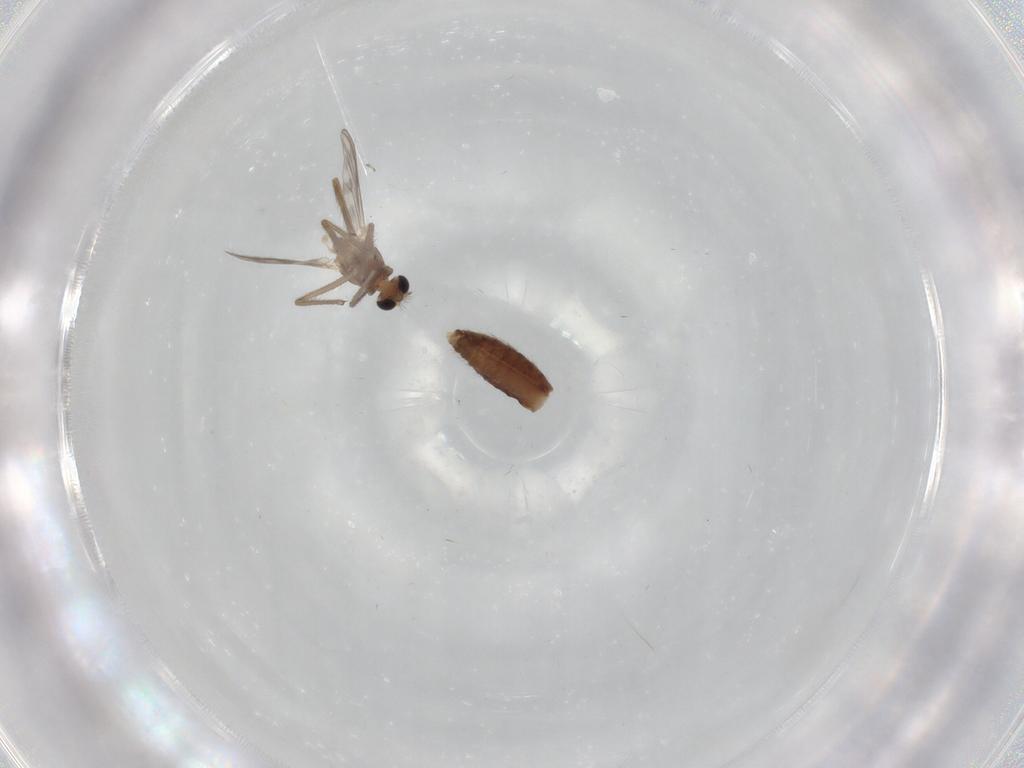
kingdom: Animalia
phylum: Arthropoda
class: Insecta
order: Diptera
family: Chironomidae
